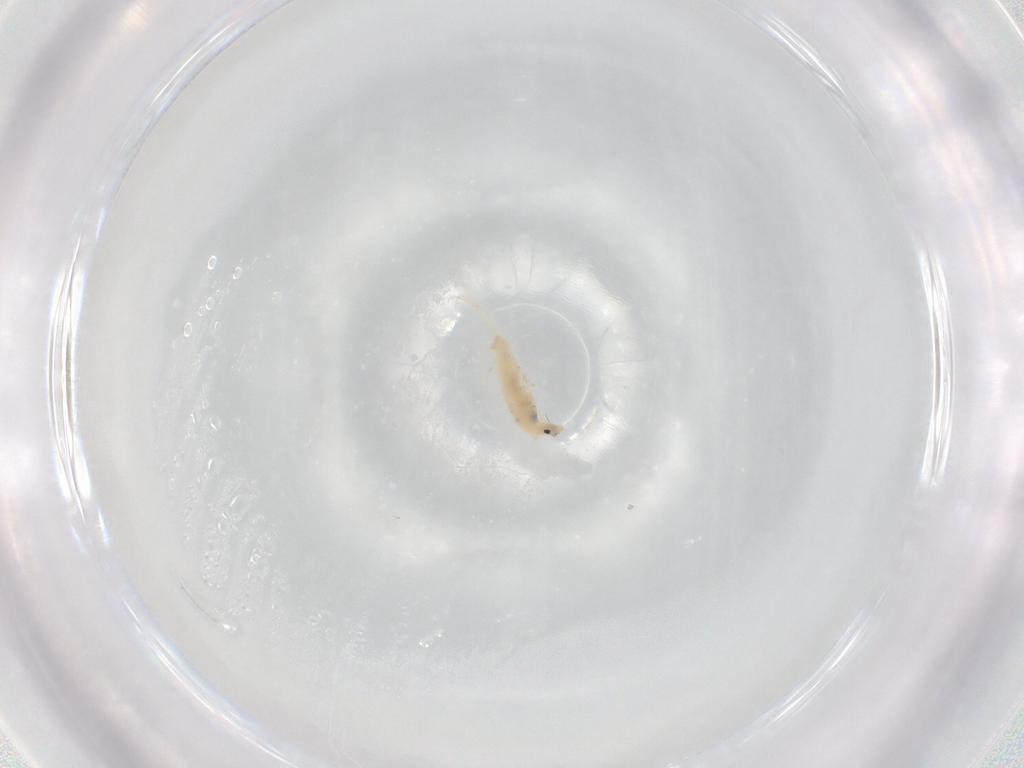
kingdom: Animalia
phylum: Arthropoda
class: Collembola
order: Entomobryomorpha
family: Entomobryidae
